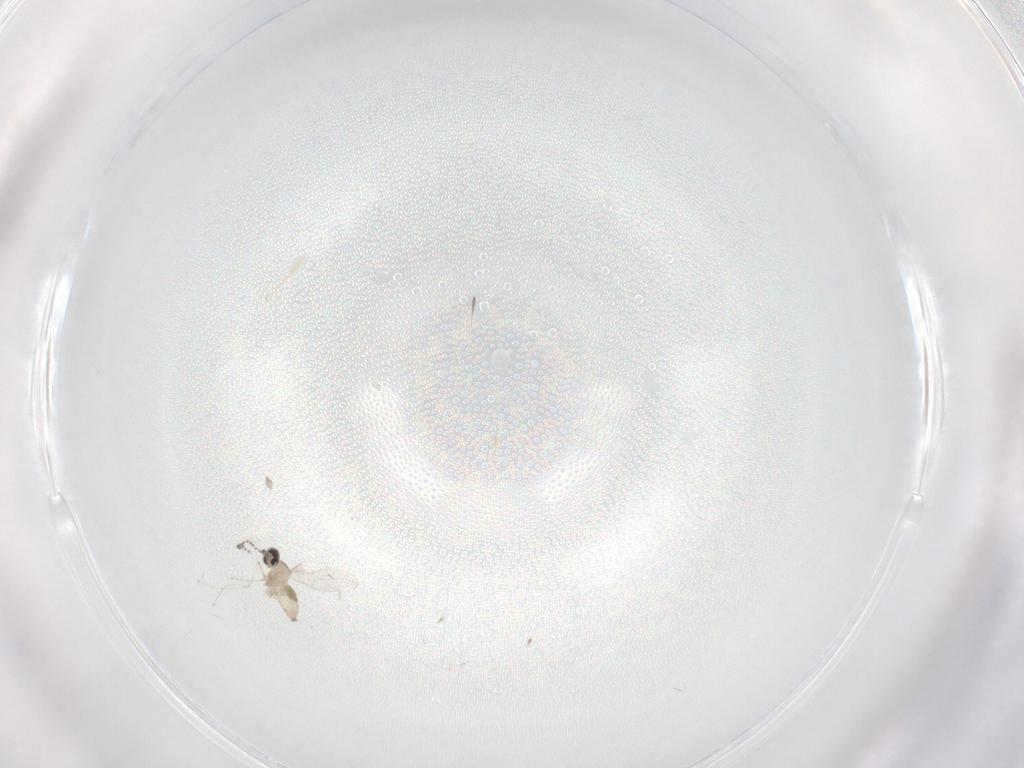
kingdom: Animalia
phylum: Arthropoda
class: Insecta
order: Diptera
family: Cecidomyiidae
